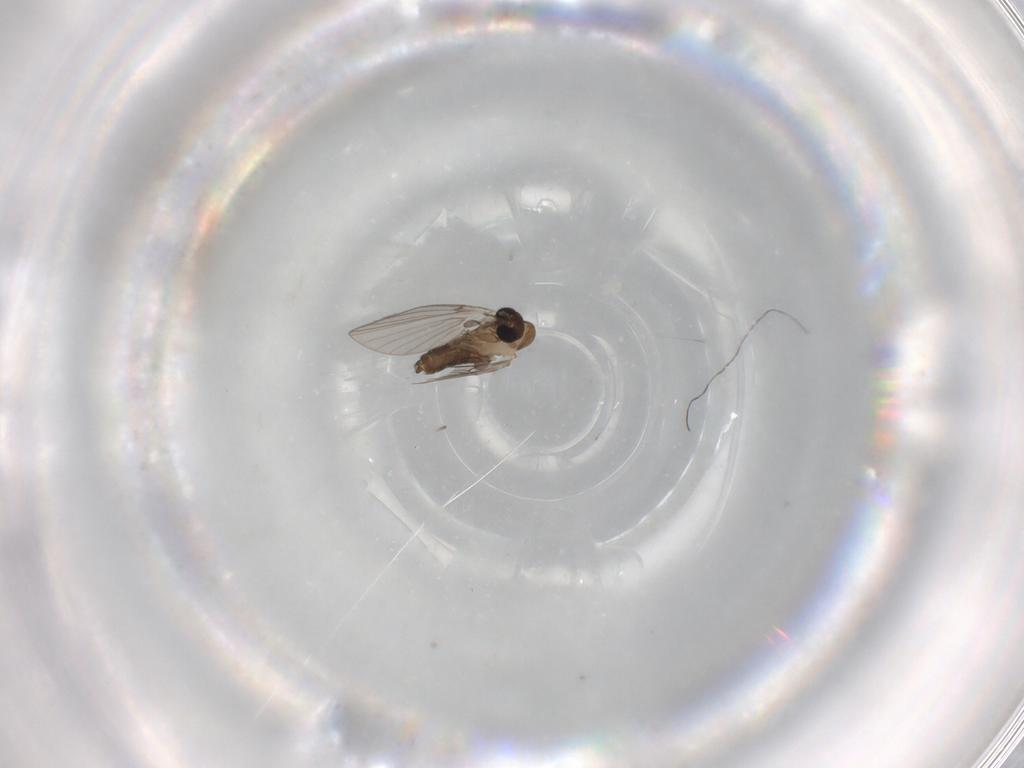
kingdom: Animalia
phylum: Arthropoda
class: Insecta
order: Diptera
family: Psychodidae
